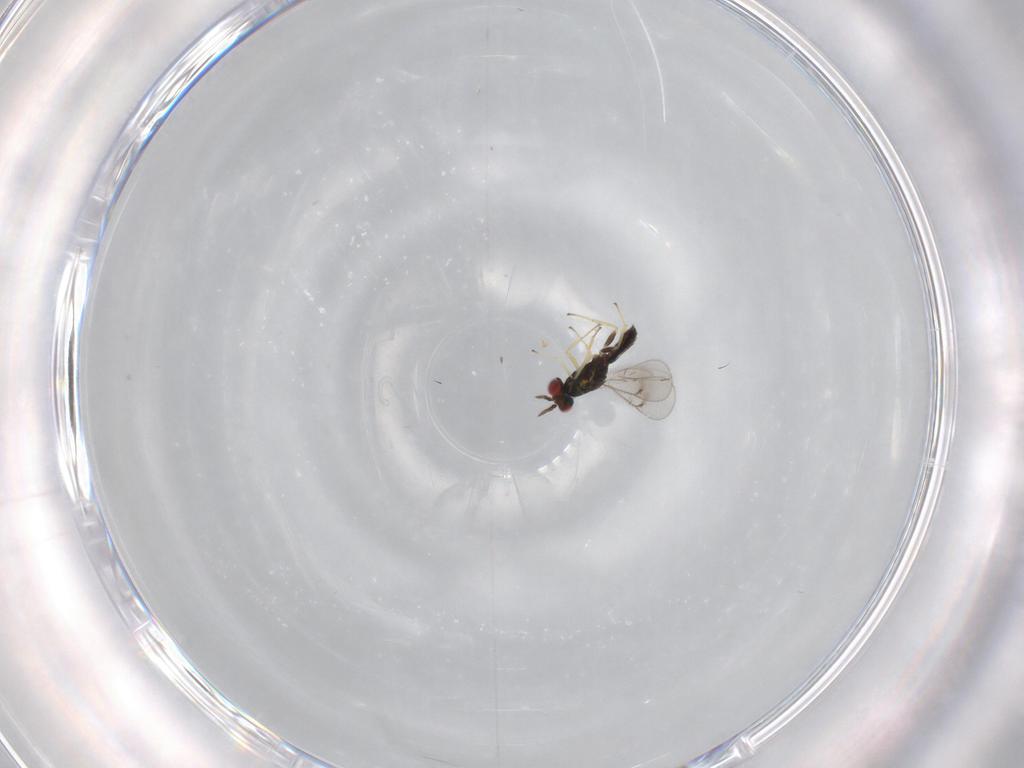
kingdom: Animalia
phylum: Arthropoda
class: Insecta
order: Hymenoptera
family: Eulophidae
